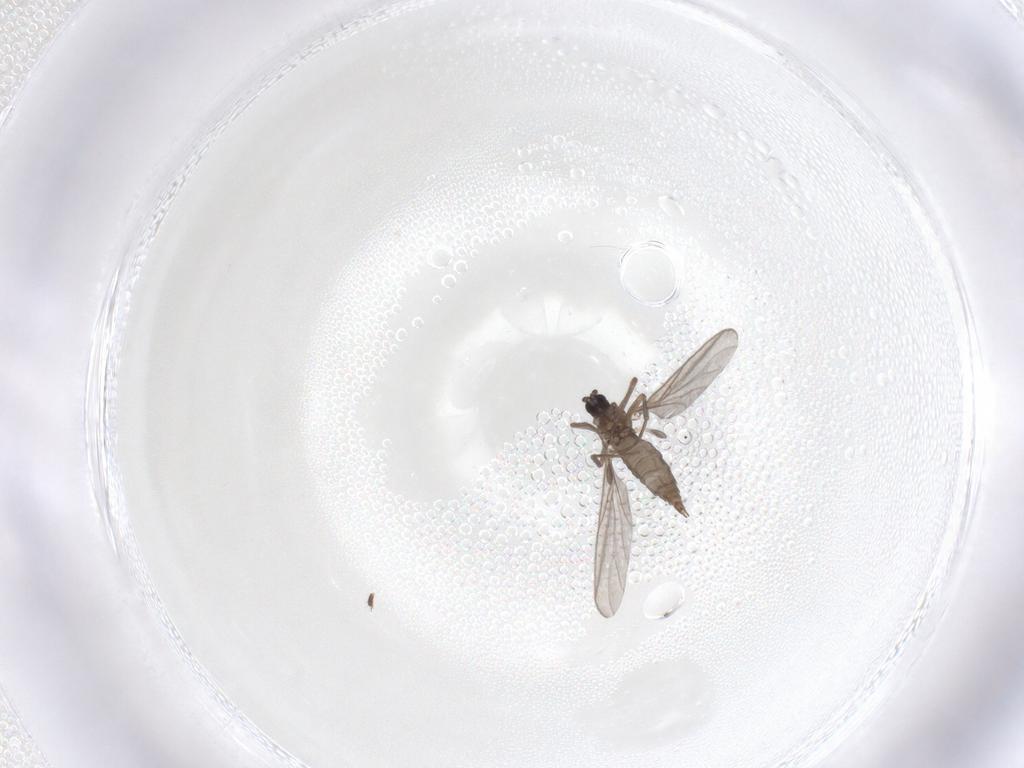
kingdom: Animalia
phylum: Arthropoda
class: Insecta
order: Diptera
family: Sciaridae
